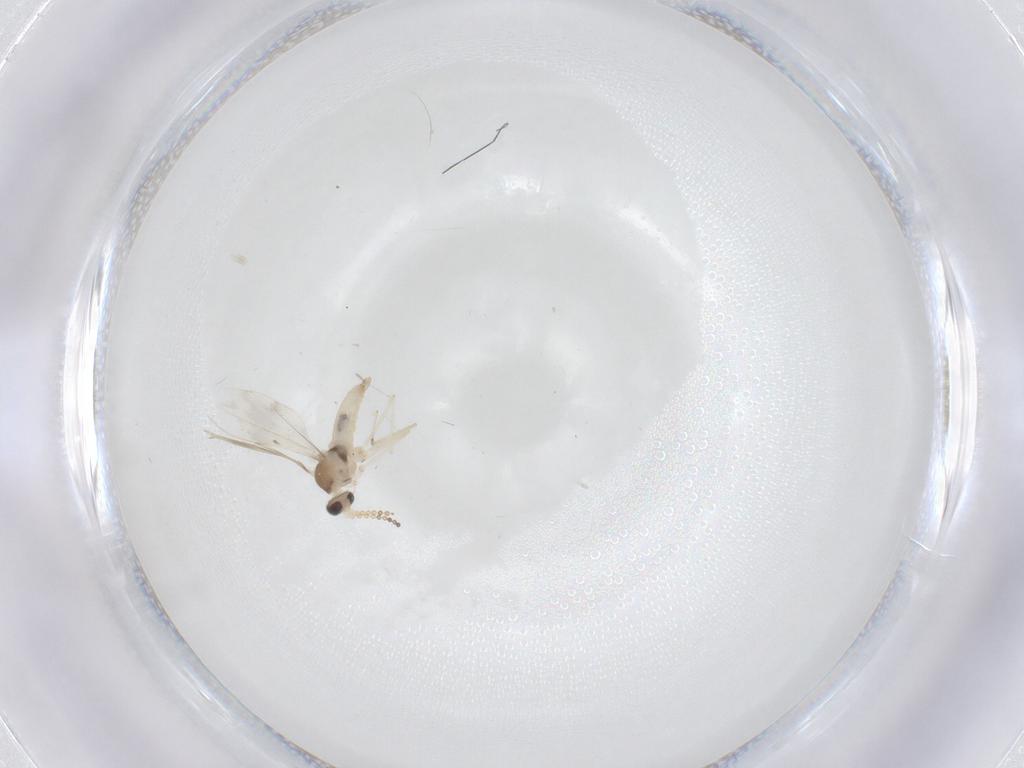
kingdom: Animalia
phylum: Arthropoda
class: Insecta
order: Diptera
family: Cecidomyiidae
